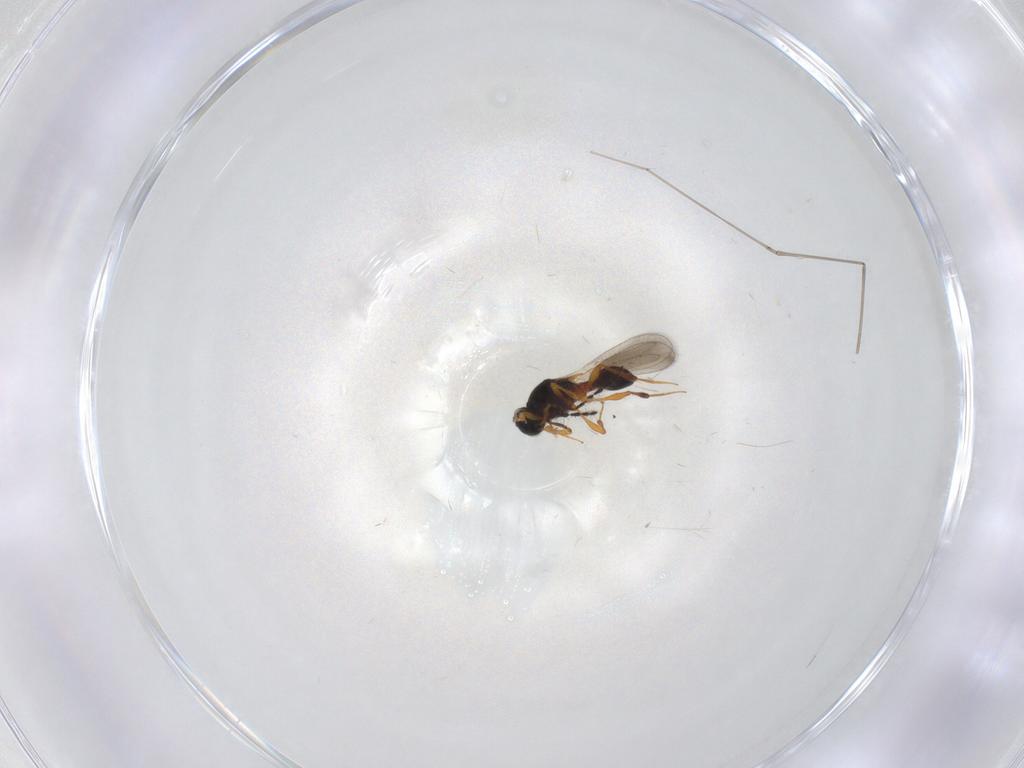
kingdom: Animalia
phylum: Arthropoda
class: Insecta
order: Hymenoptera
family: Platygastridae
